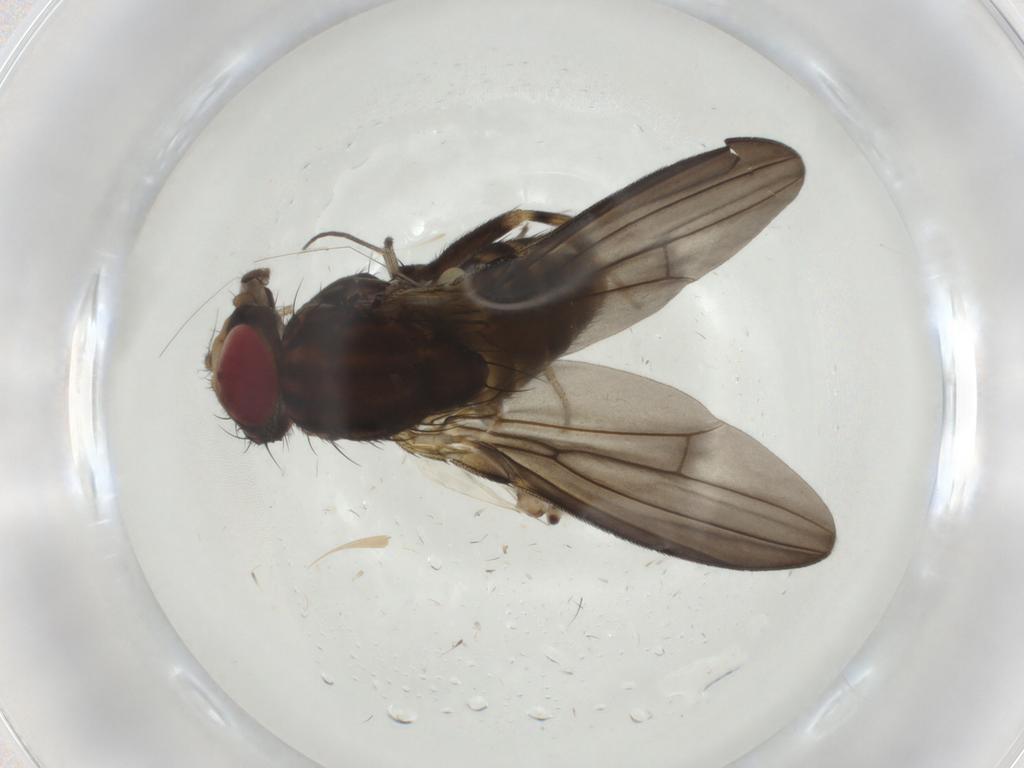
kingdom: Animalia
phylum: Arthropoda
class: Insecta
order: Diptera
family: Drosophilidae
